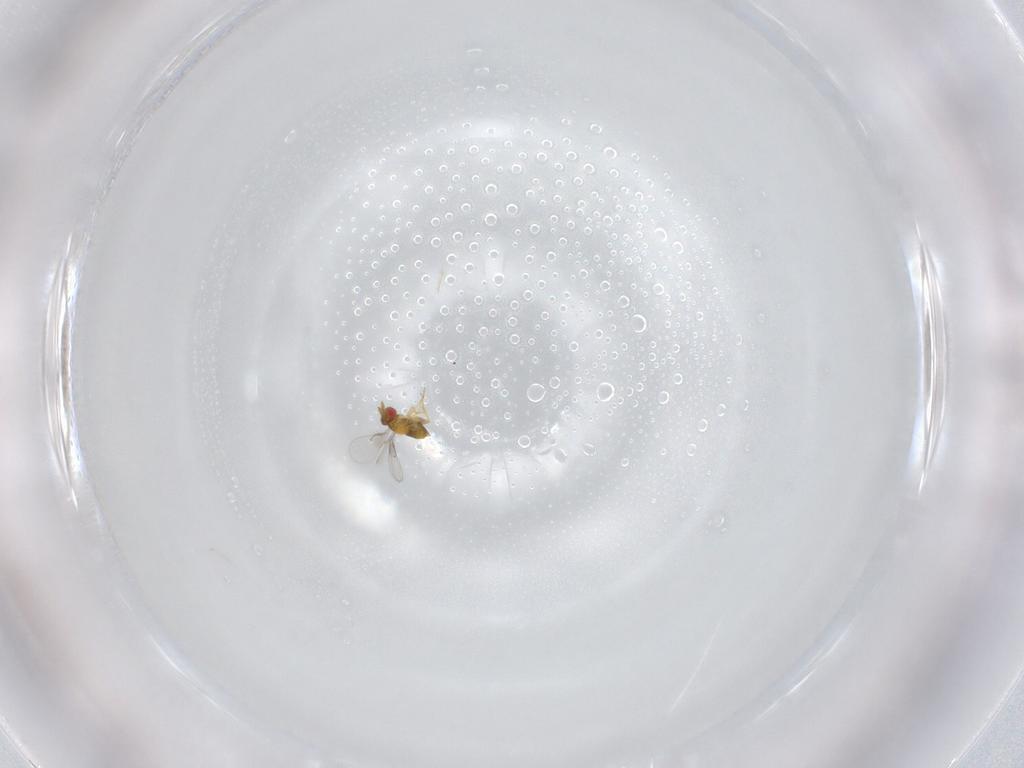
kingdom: Animalia
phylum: Arthropoda
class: Insecta
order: Hymenoptera
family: Trichogrammatidae
